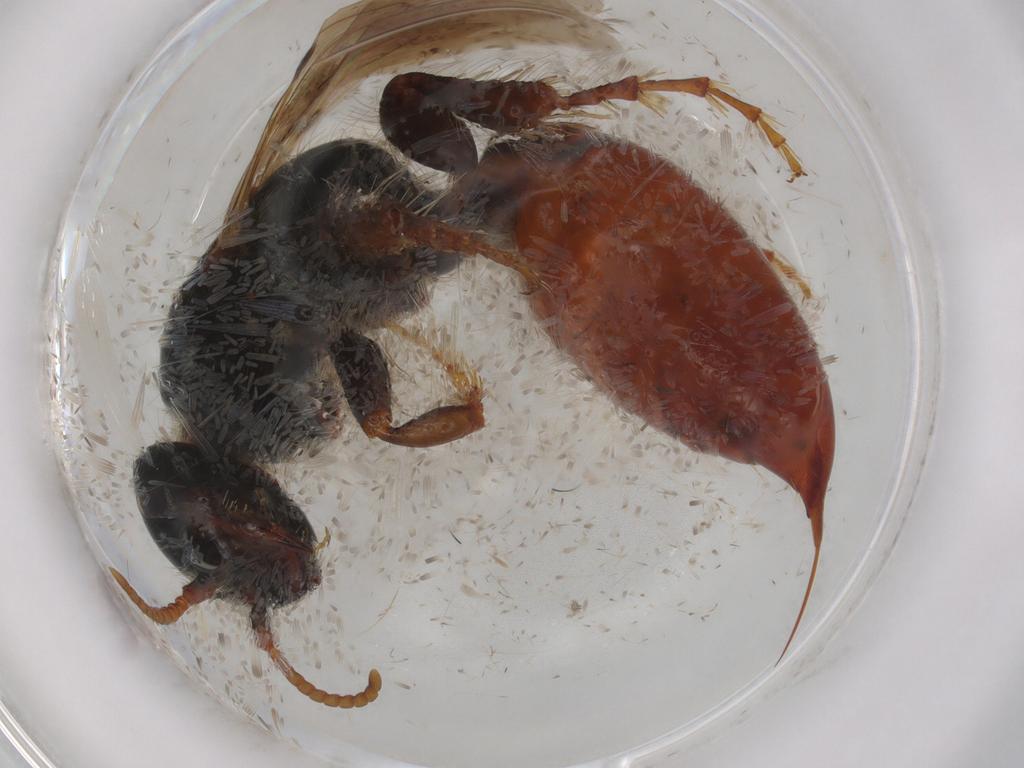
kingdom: Animalia
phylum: Arthropoda
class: Insecta
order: Hymenoptera
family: Tiphiidae
